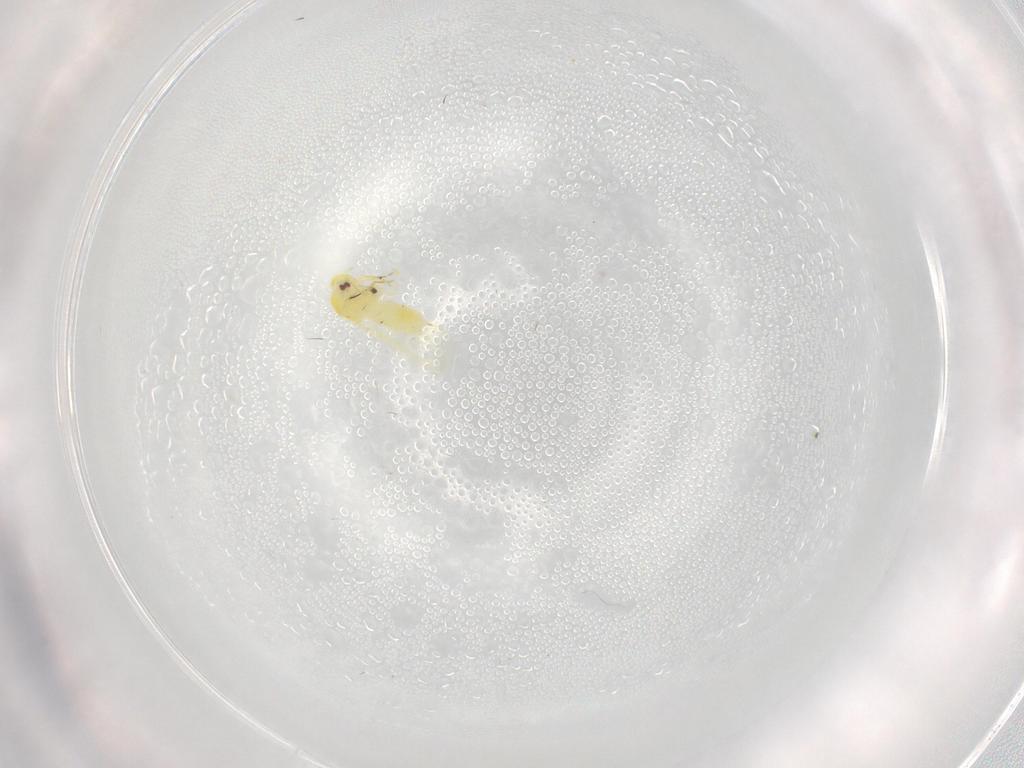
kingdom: Animalia
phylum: Arthropoda
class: Insecta
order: Hemiptera
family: Aleyrodidae
